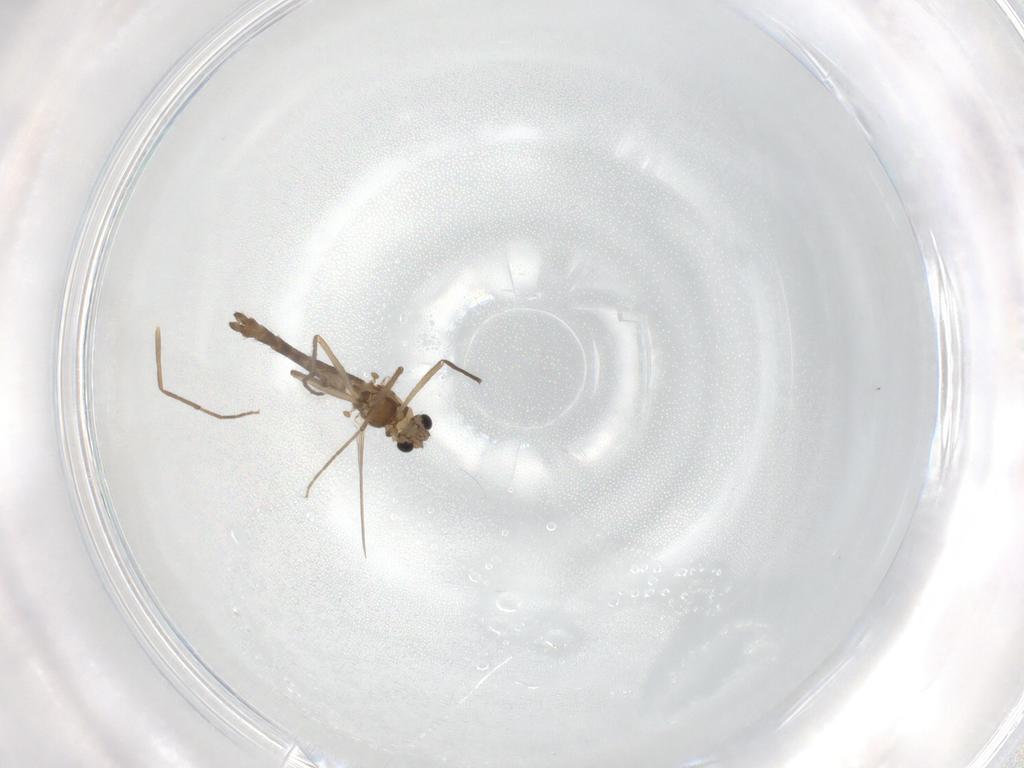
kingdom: Animalia
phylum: Arthropoda
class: Insecta
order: Diptera
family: Chironomidae
